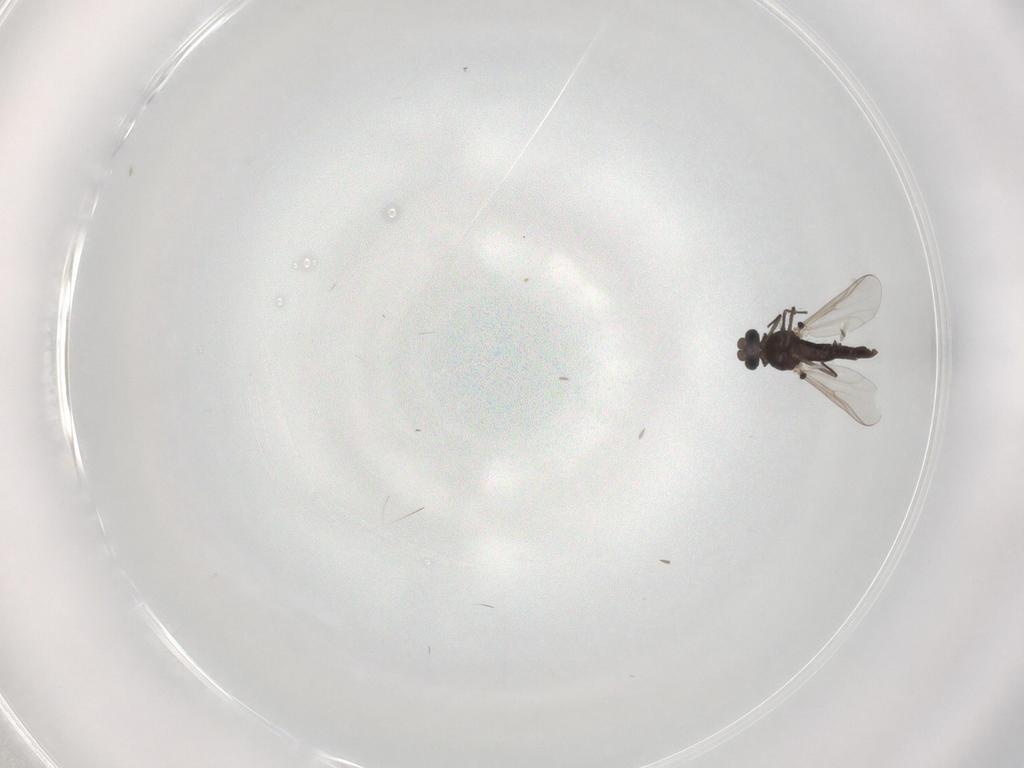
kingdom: Animalia
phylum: Arthropoda
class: Insecta
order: Diptera
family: Chironomidae
